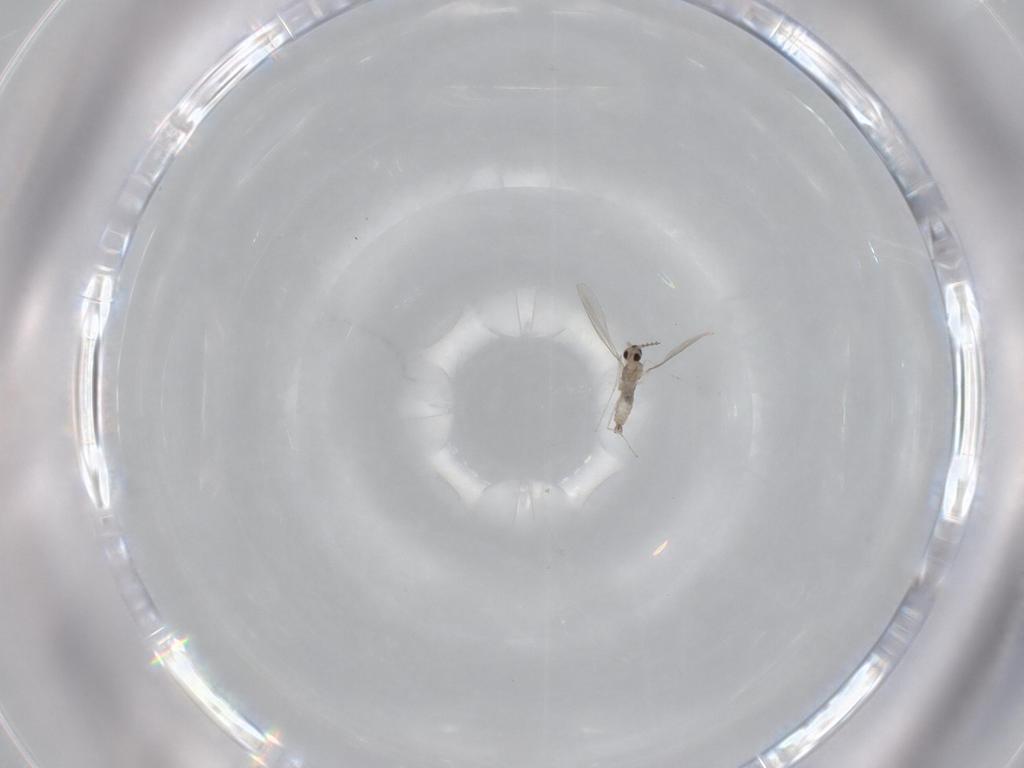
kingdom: Animalia
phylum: Arthropoda
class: Insecta
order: Diptera
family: Cecidomyiidae
